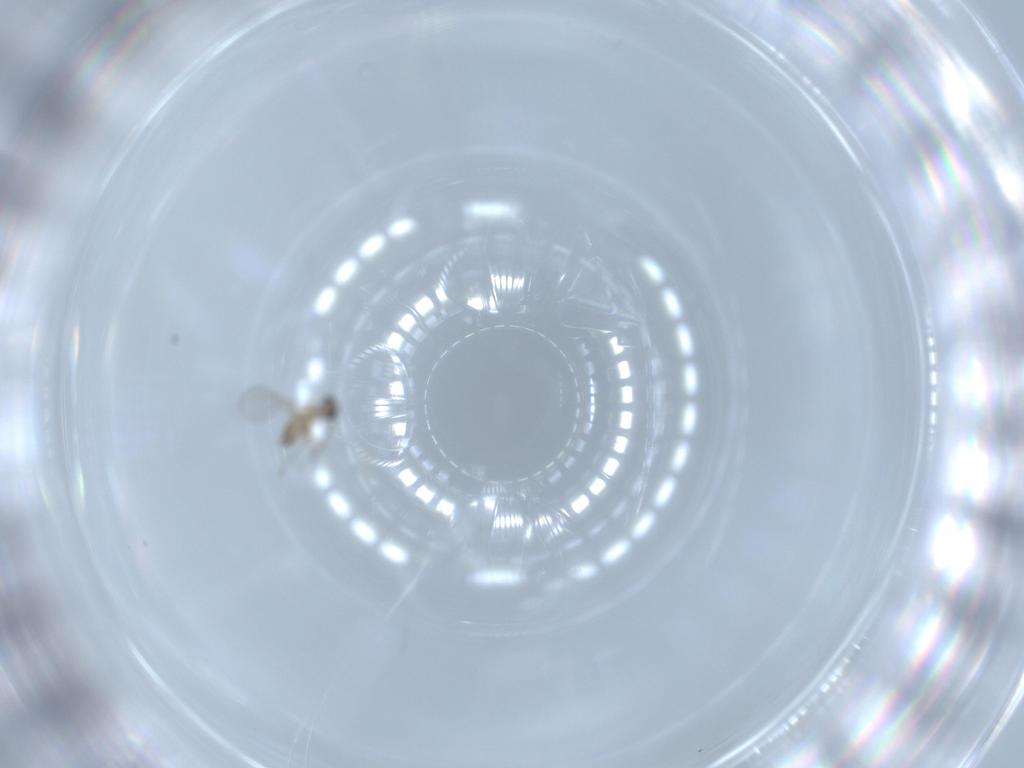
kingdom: Animalia
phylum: Arthropoda
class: Insecta
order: Diptera
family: Cecidomyiidae
